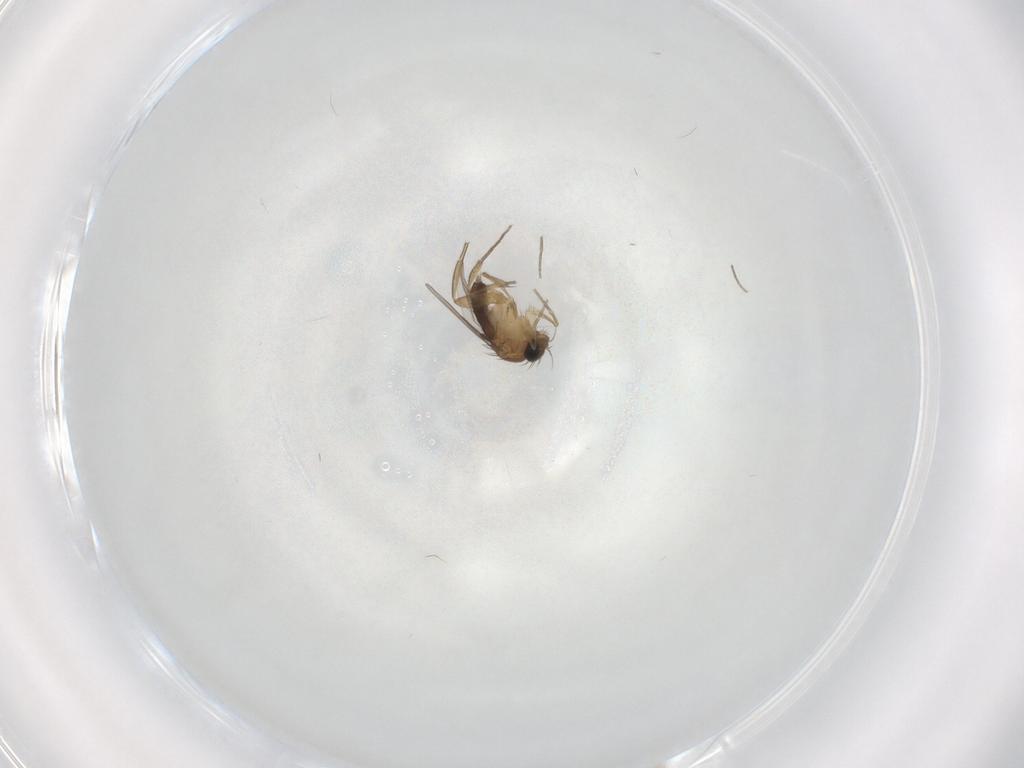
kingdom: Animalia
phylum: Arthropoda
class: Insecta
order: Diptera
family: Phoridae
